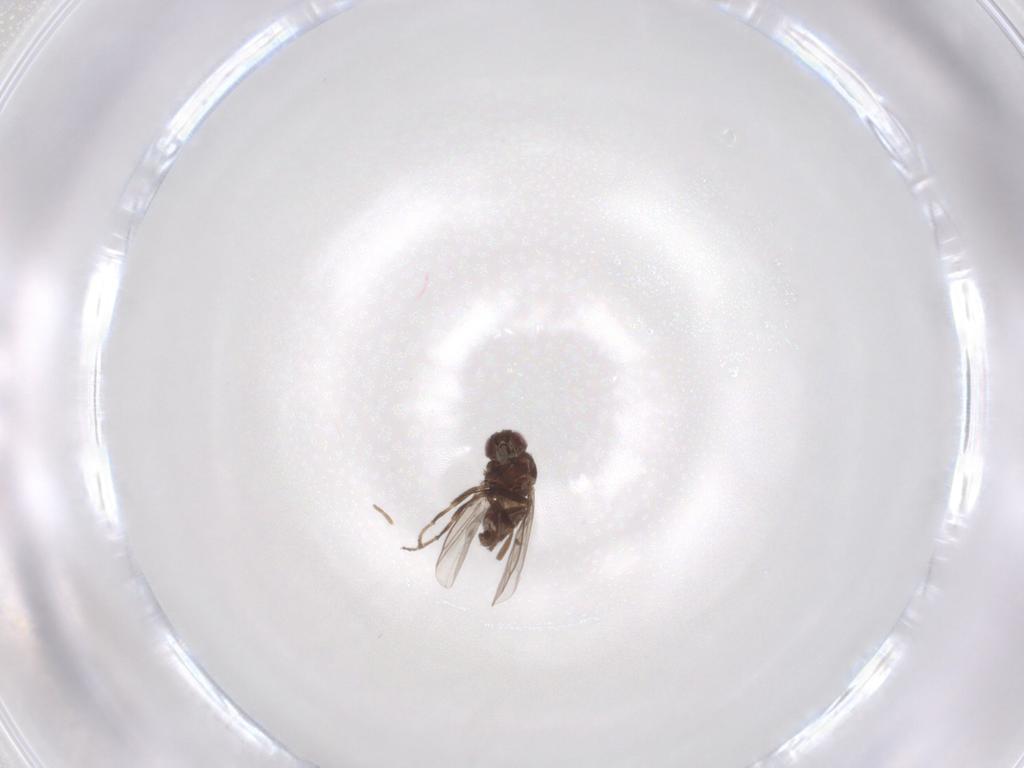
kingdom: Animalia
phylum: Arthropoda
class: Insecta
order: Diptera
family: Agromyzidae
